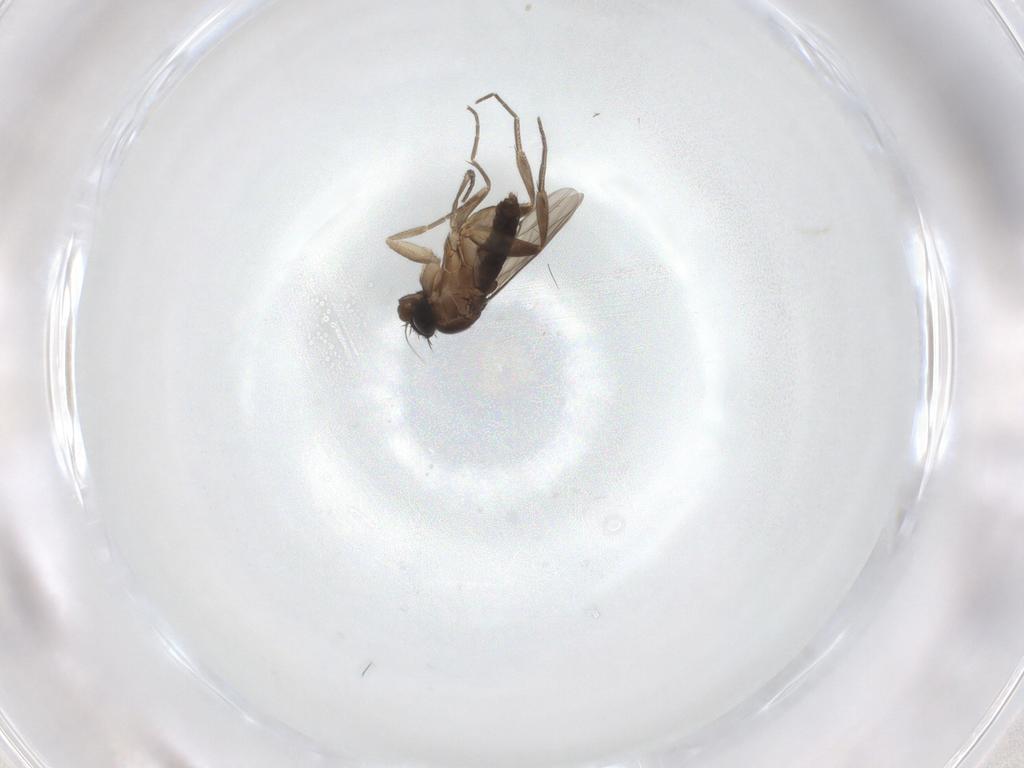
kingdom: Animalia
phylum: Arthropoda
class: Insecta
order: Diptera
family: Phoridae
